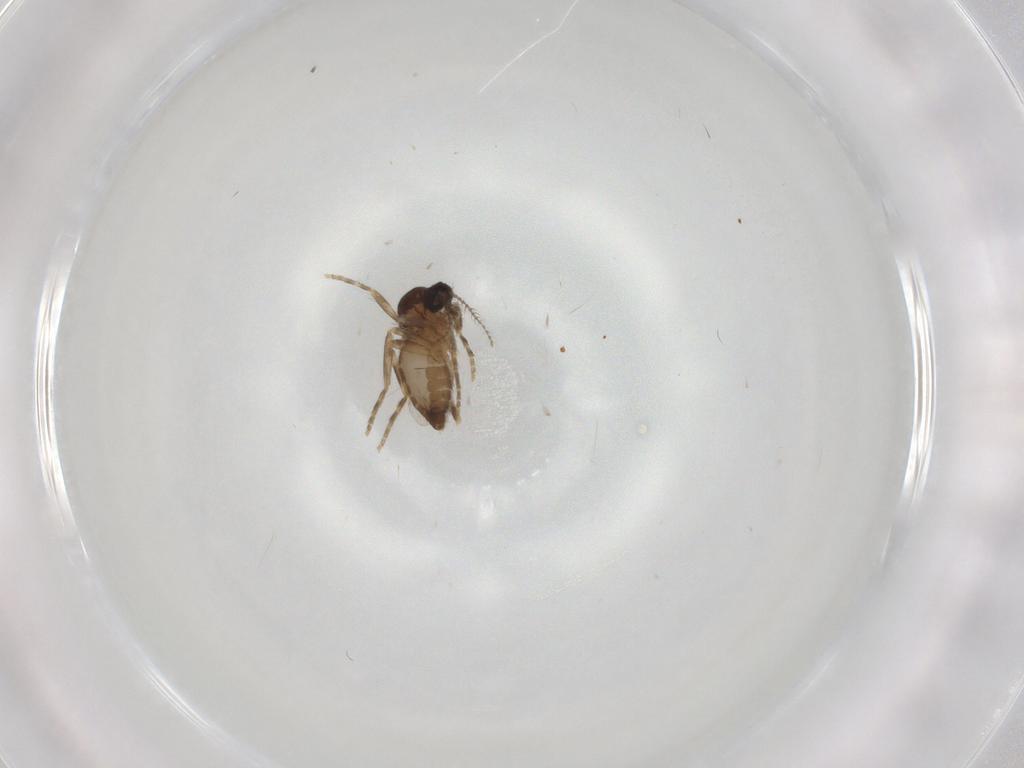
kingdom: Animalia
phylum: Arthropoda
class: Insecta
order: Diptera
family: Ceratopogonidae
